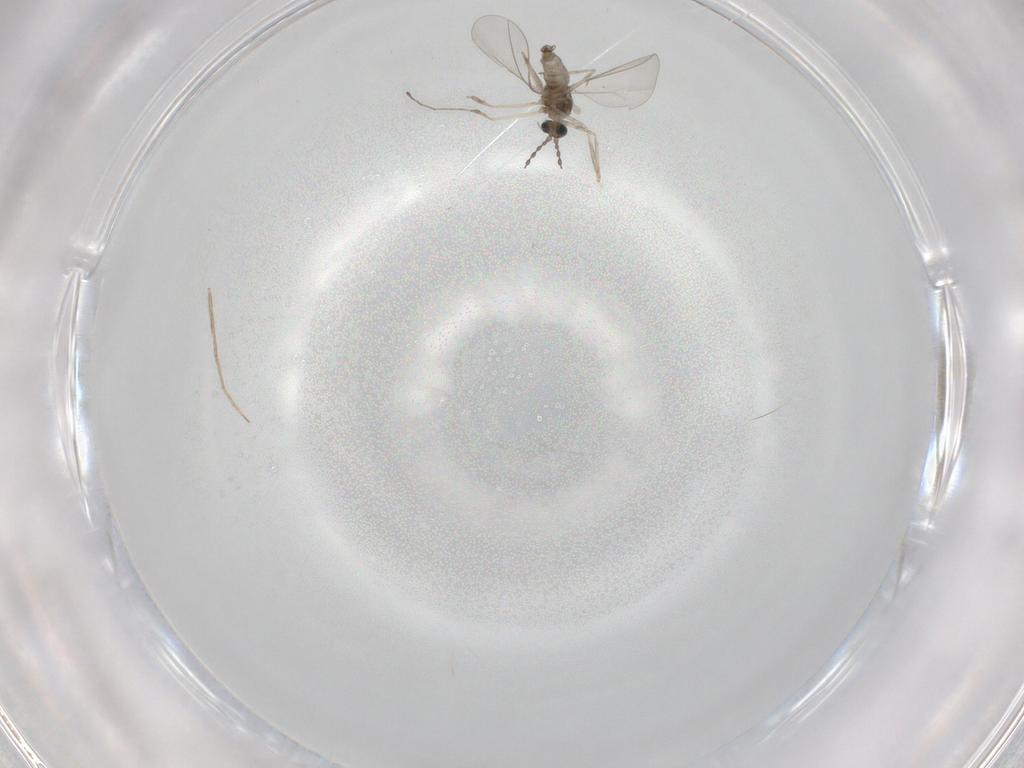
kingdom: Animalia
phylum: Arthropoda
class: Insecta
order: Diptera
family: Cecidomyiidae
